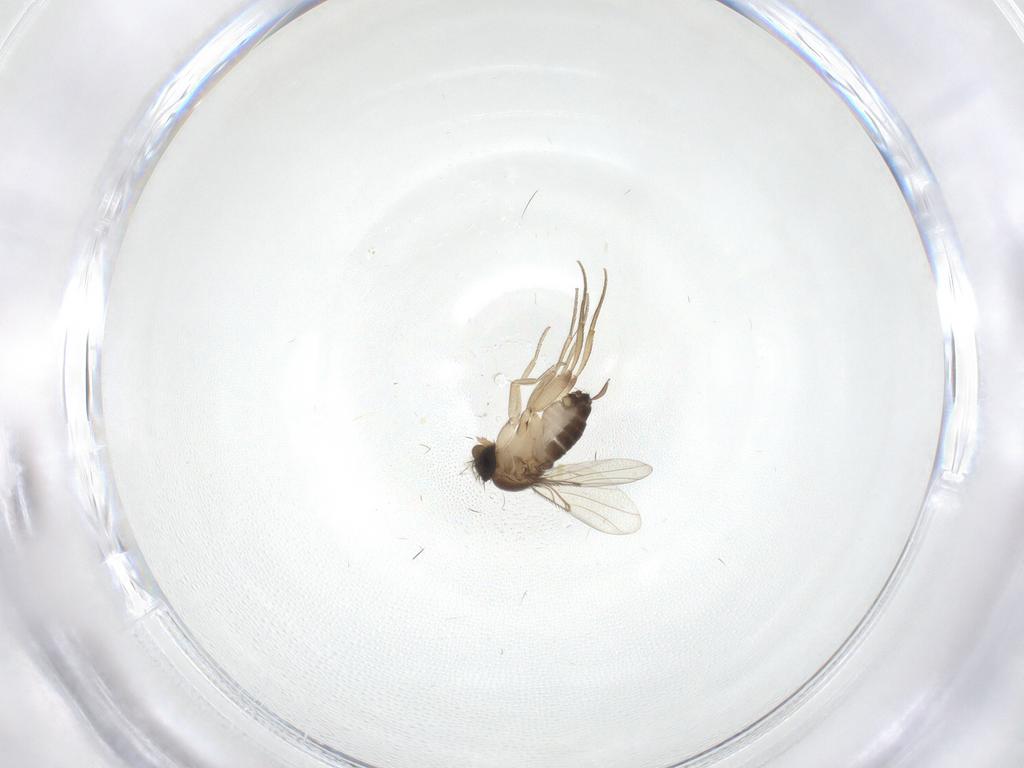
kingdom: Animalia
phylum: Arthropoda
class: Insecta
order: Diptera
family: Phoridae
